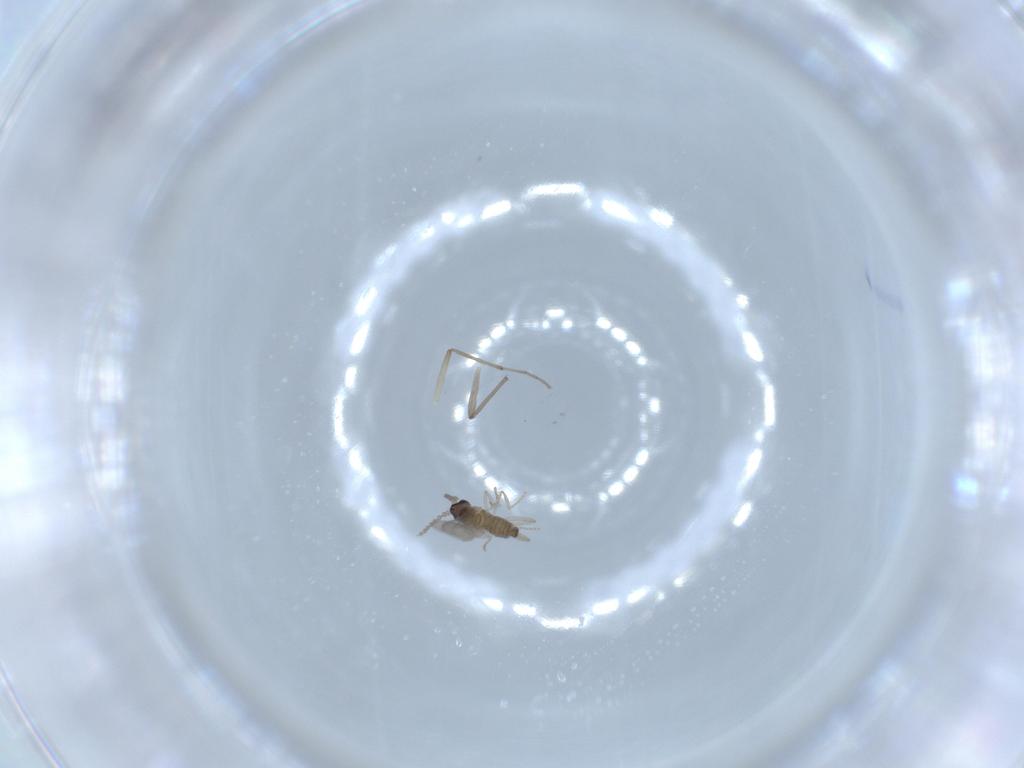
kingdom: Animalia
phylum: Arthropoda
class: Insecta
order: Diptera
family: Cecidomyiidae
